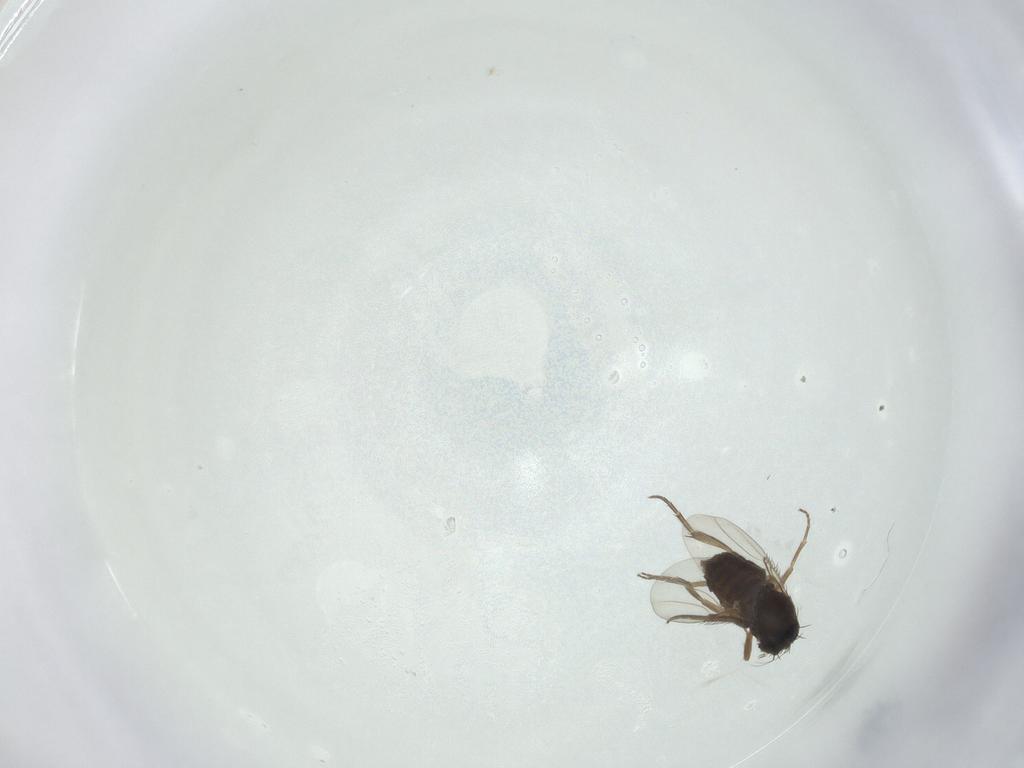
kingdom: Animalia
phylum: Arthropoda
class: Insecta
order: Diptera
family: Phoridae
